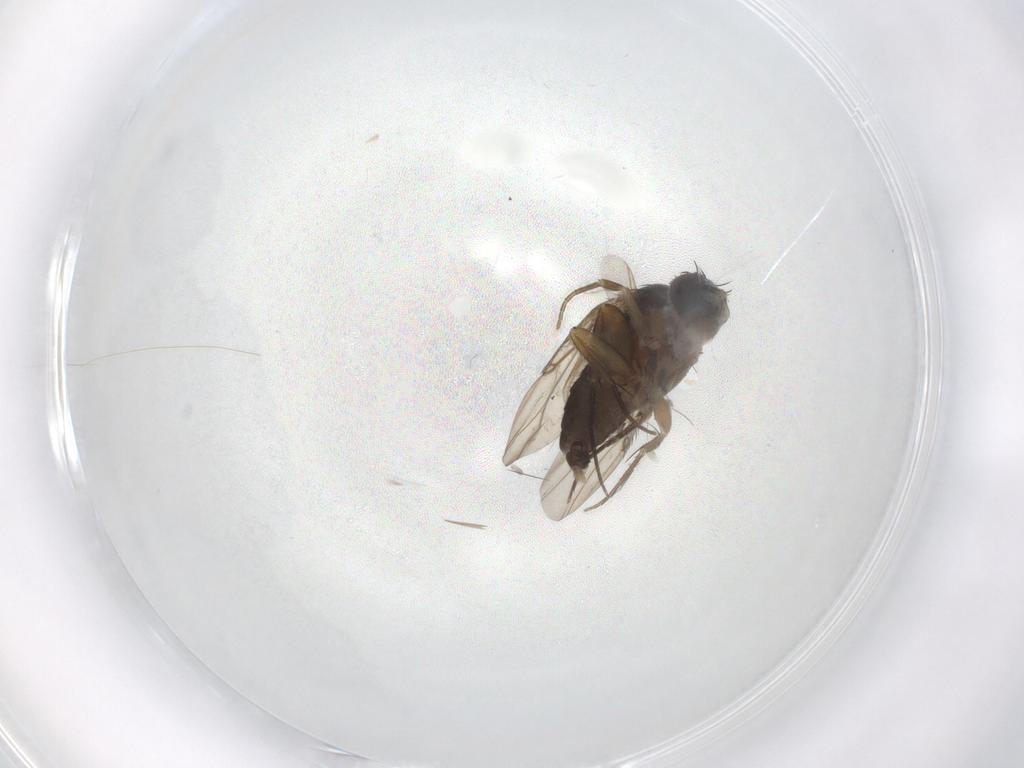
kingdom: Animalia
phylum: Arthropoda
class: Insecta
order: Diptera
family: Phoridae
